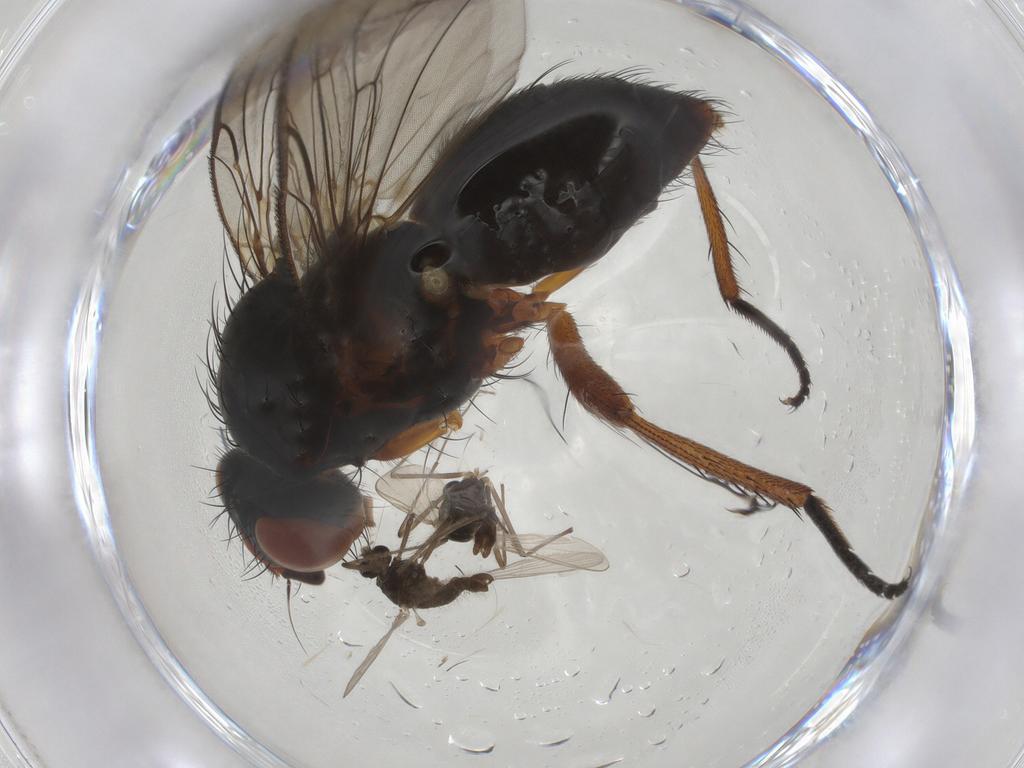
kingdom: Animalia
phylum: Arthropoda
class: Insecta
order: Diptera
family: Anthomyiidae
